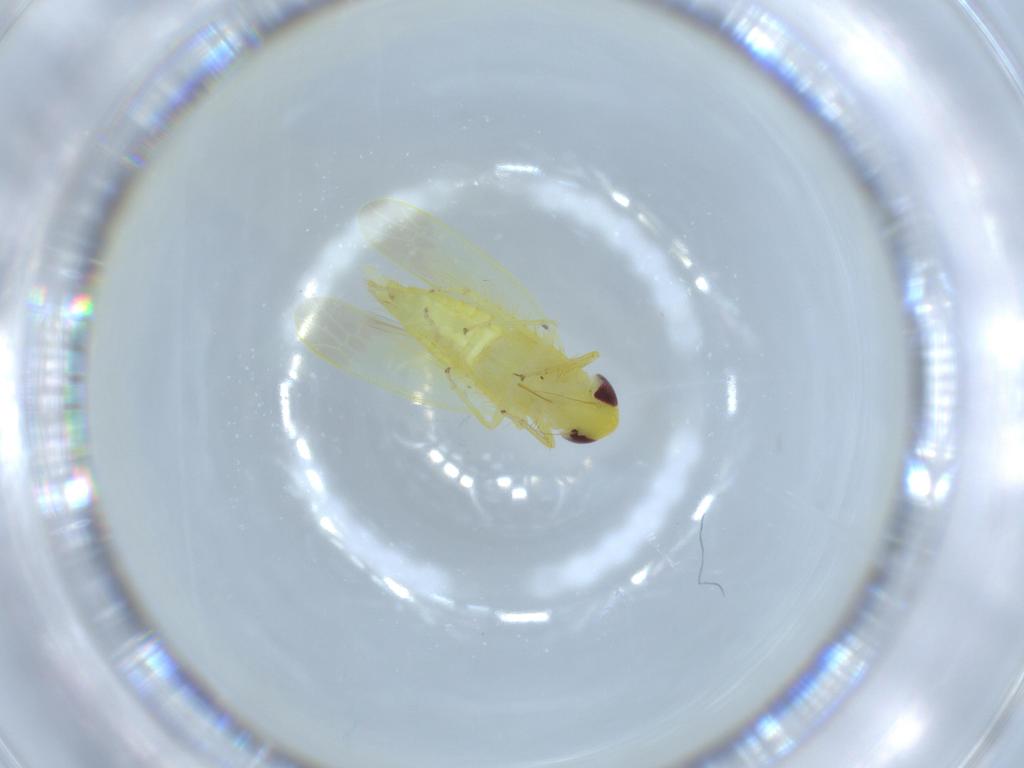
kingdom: Animalia
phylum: Arthropoda
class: Insecta
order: Hemiptera
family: Cicadellidae
